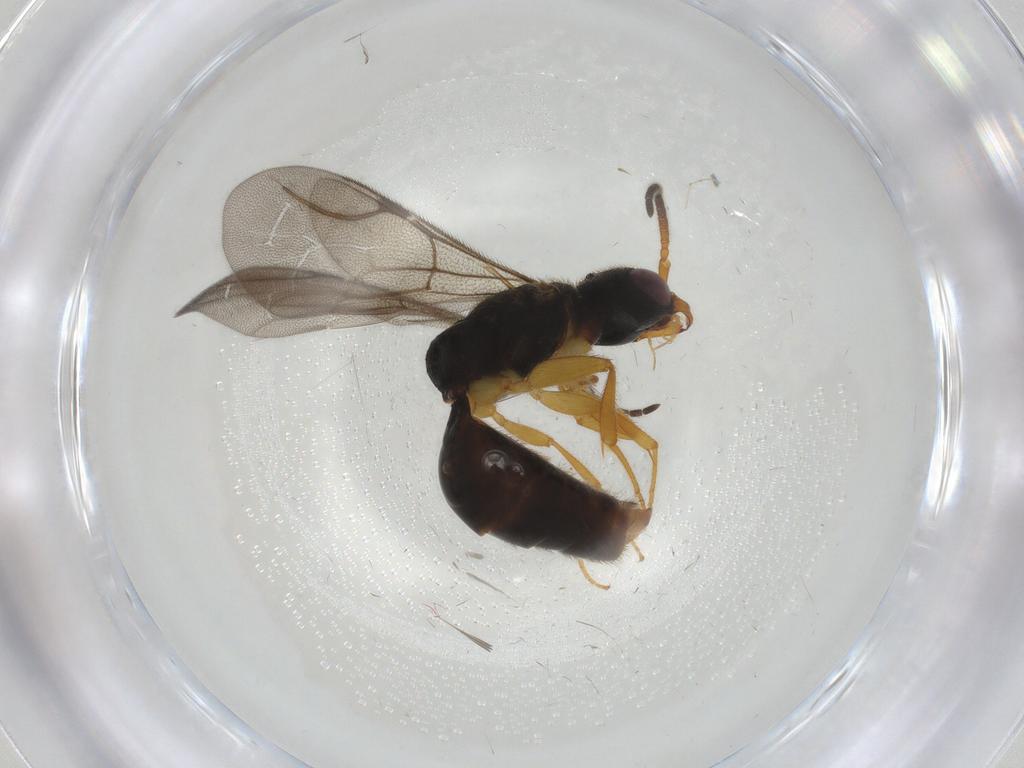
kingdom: Animalia
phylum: Arthropoda
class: Insecta
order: Hymenoptera
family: Bethylidae
